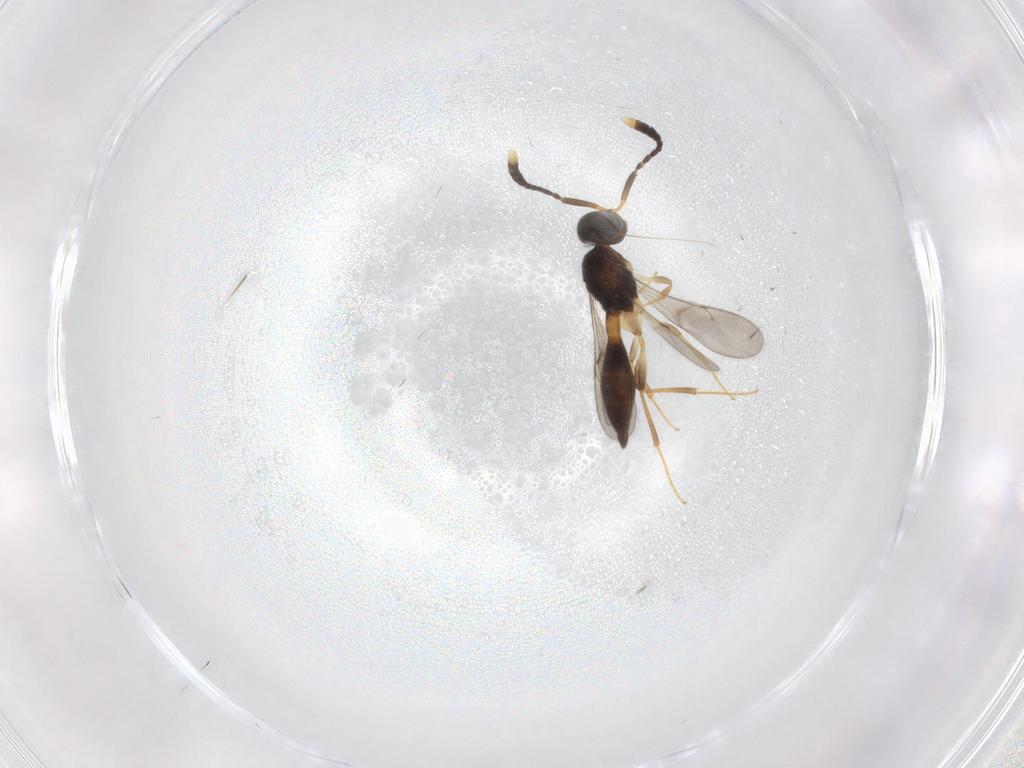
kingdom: Animalia
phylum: Arthropoda
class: Insecta
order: Hymenoptera
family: Scelionidae
